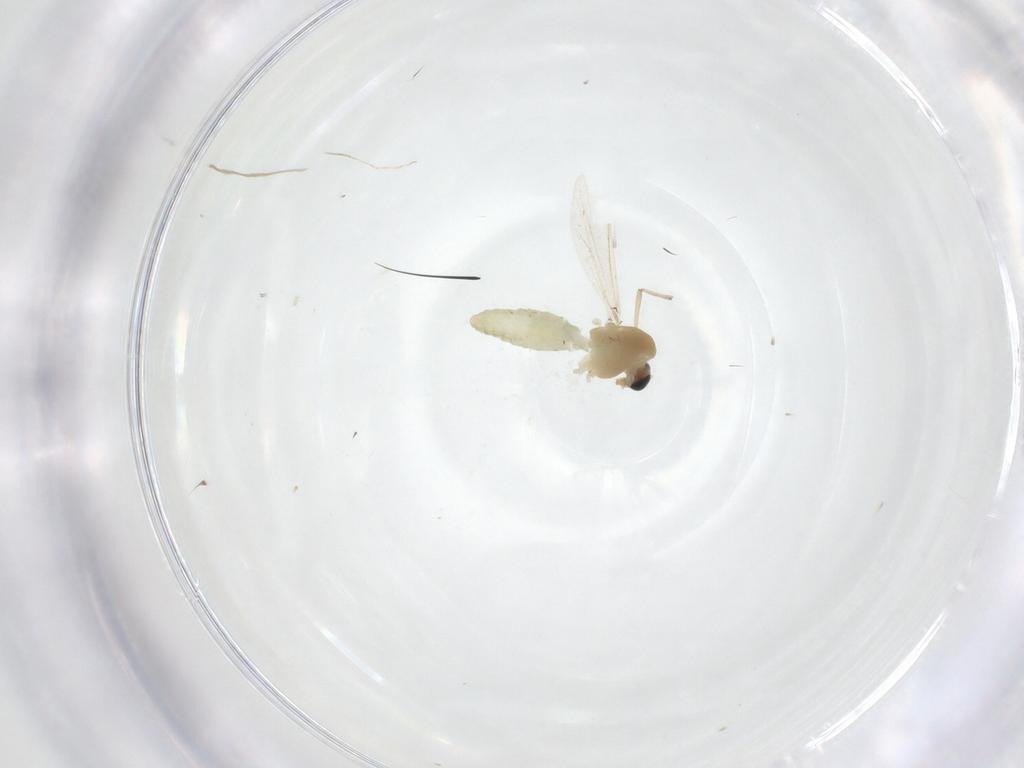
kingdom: Animalia
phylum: Arthropoda
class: Insecta
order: Diptera
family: Chironomidae
